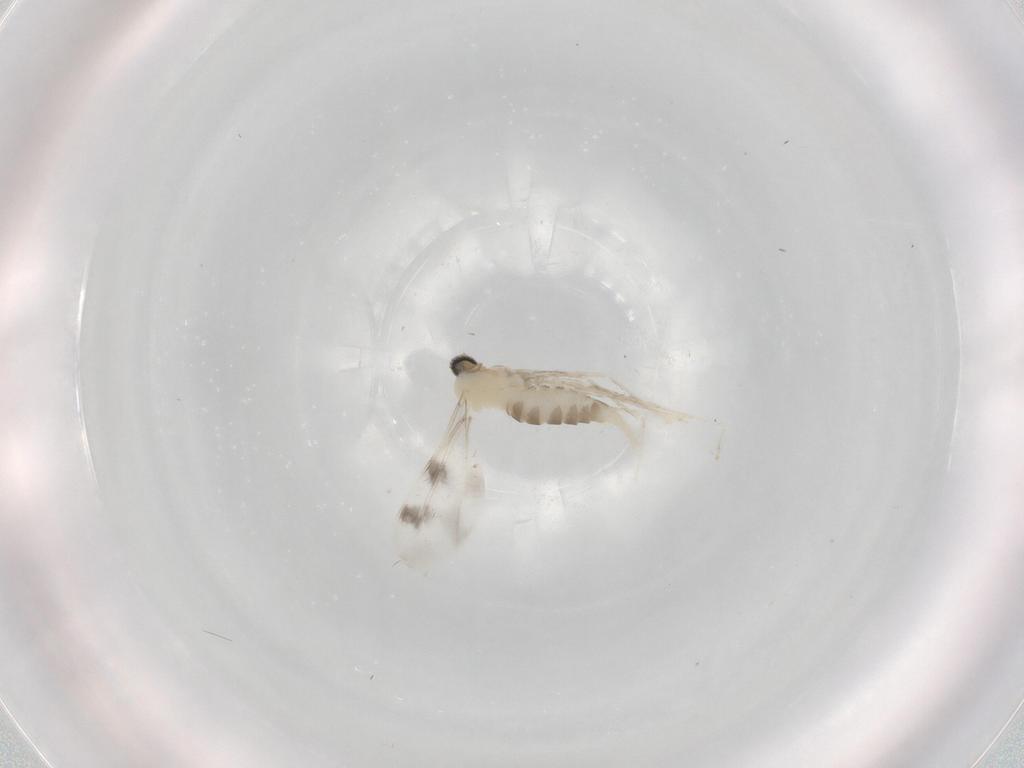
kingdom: Animalia
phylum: Arthropoda
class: Insecta
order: Diptera
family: Cecidomyiidae
